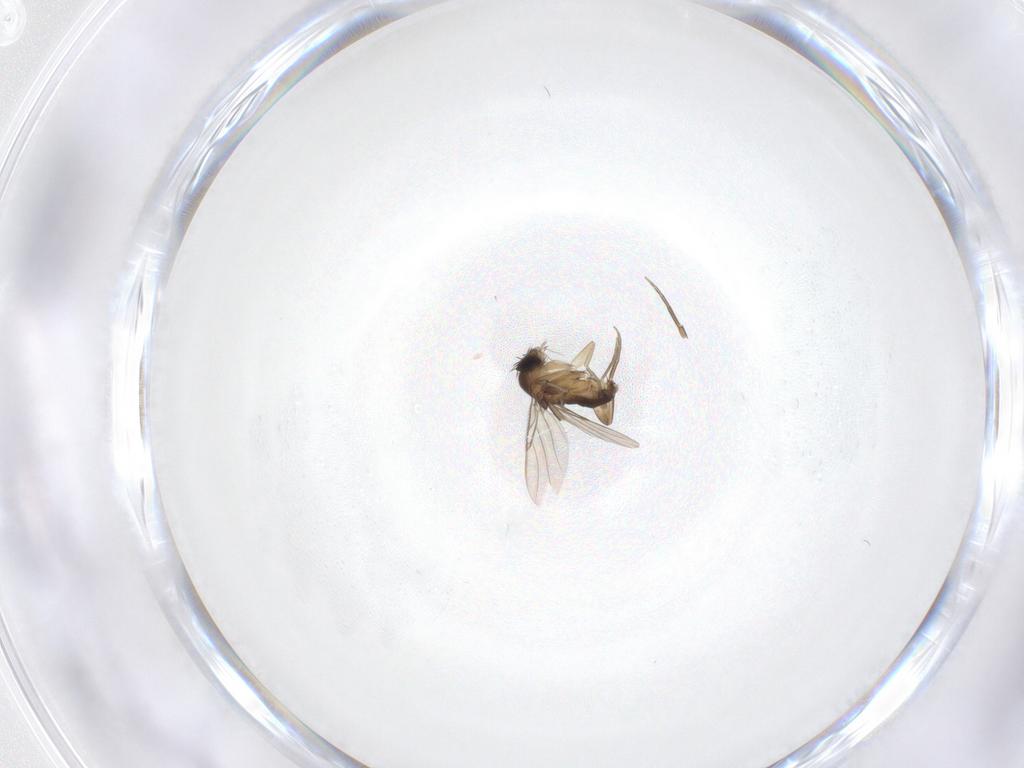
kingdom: Animalia
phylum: Arthropoda
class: Insecta
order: Diptera
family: Phoridae
